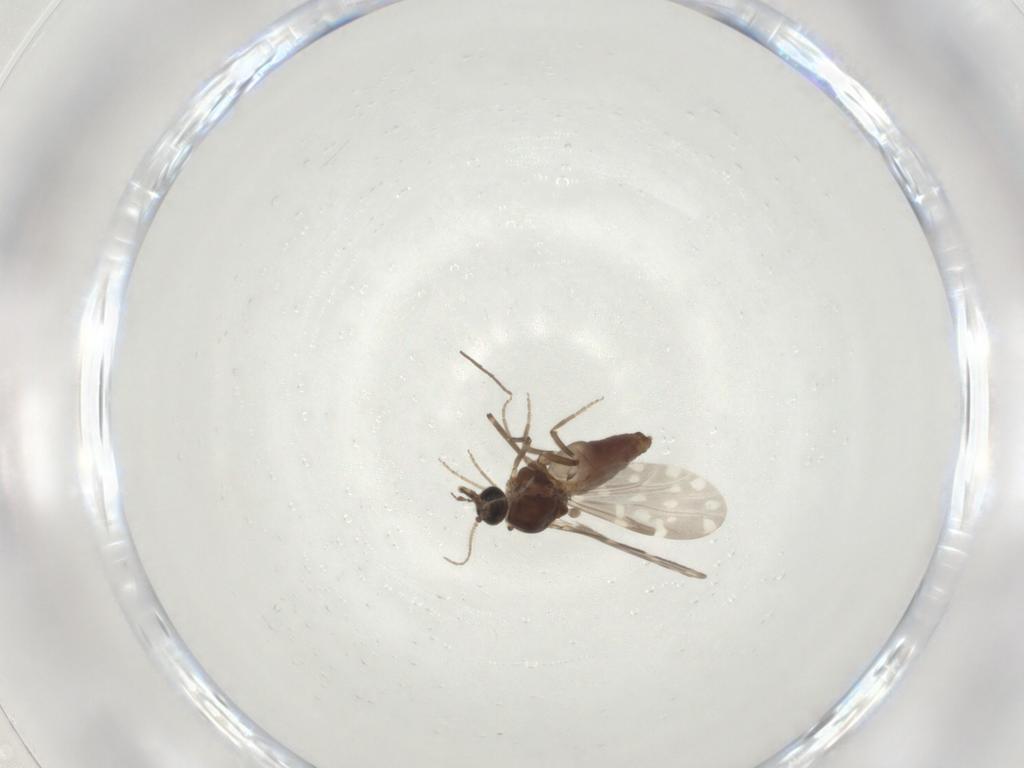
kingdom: Animalia
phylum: Arthropoda
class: Insecta
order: Diptera
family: Ceratopogonidae
